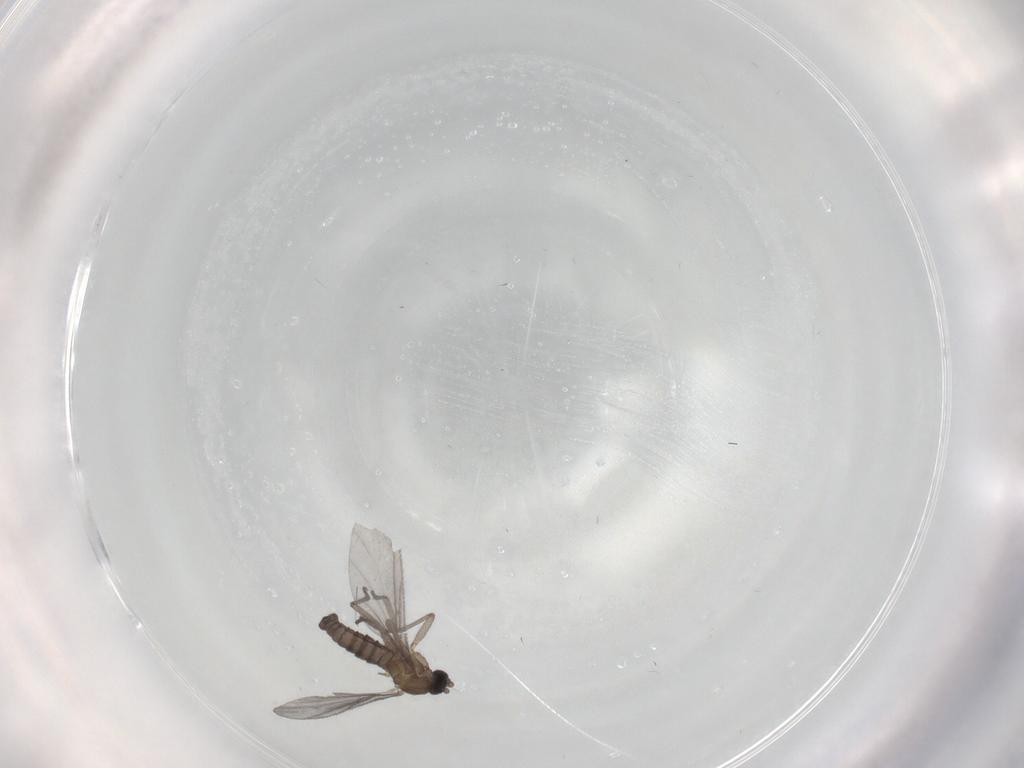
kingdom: Animalia
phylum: Arthropoda
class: Insecta
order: Diptera
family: Sciaridae
